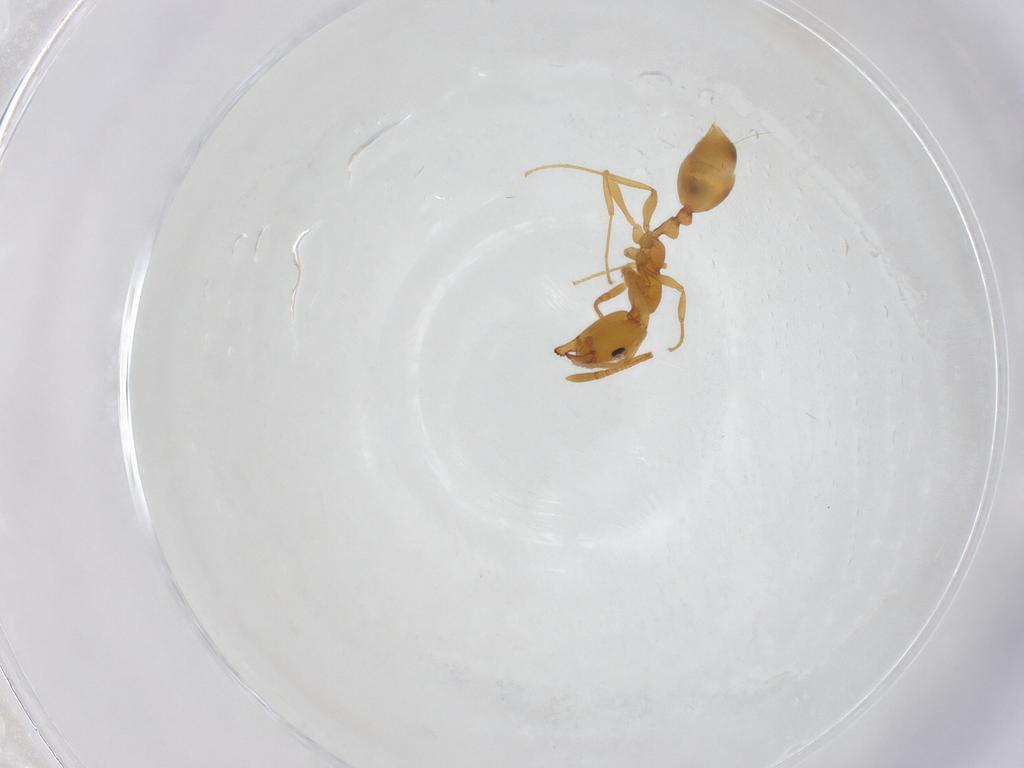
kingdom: Animalia
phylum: Arthropoda
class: Insecta
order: Hymenoptera
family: Formicidae
